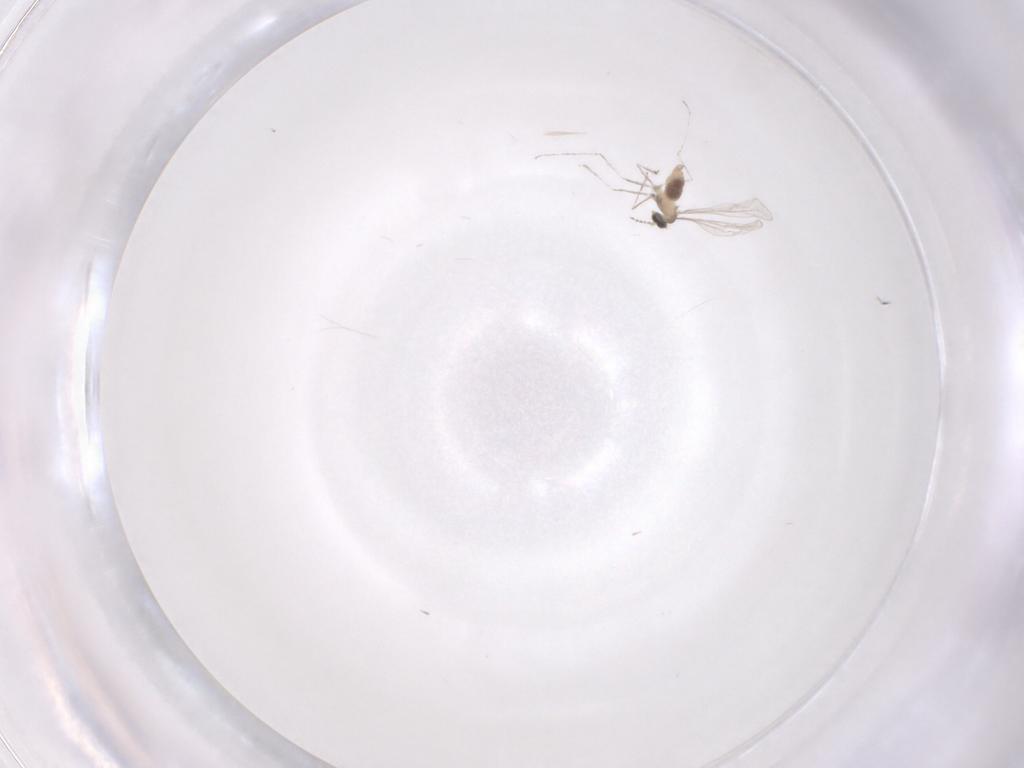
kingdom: Animalia
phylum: Arthropoda
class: Insecta
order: Diptera
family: Cecidomyiidae
